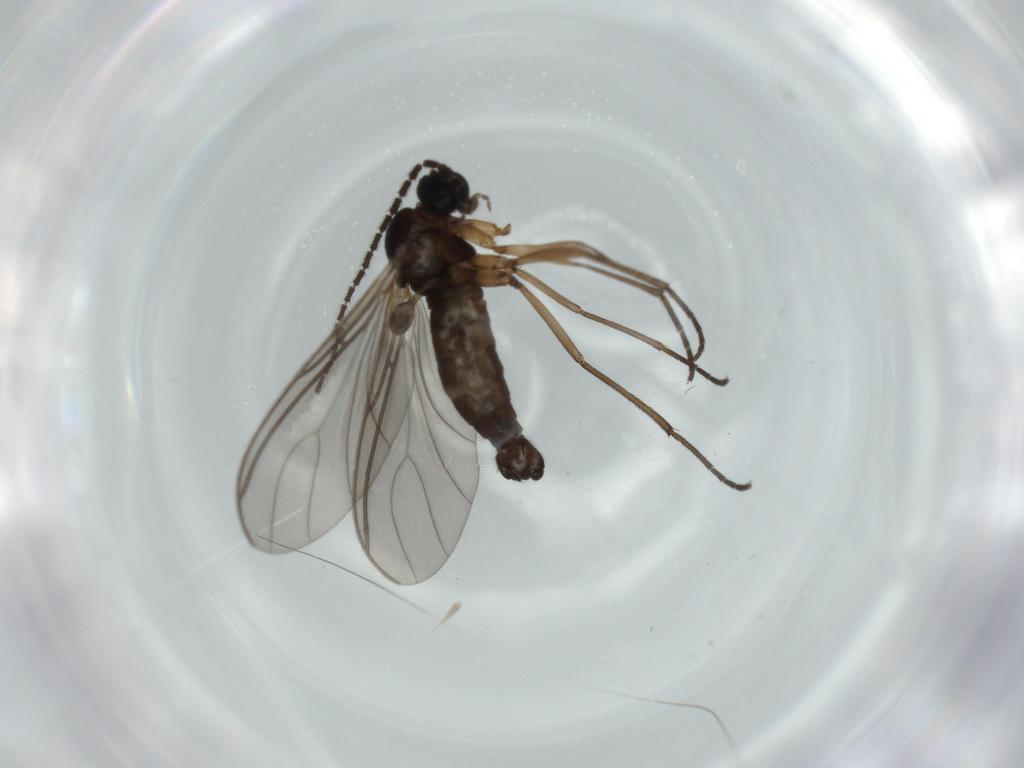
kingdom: Animalia
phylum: Arthropoda
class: Insecta
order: Diptera
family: Sciaridae
